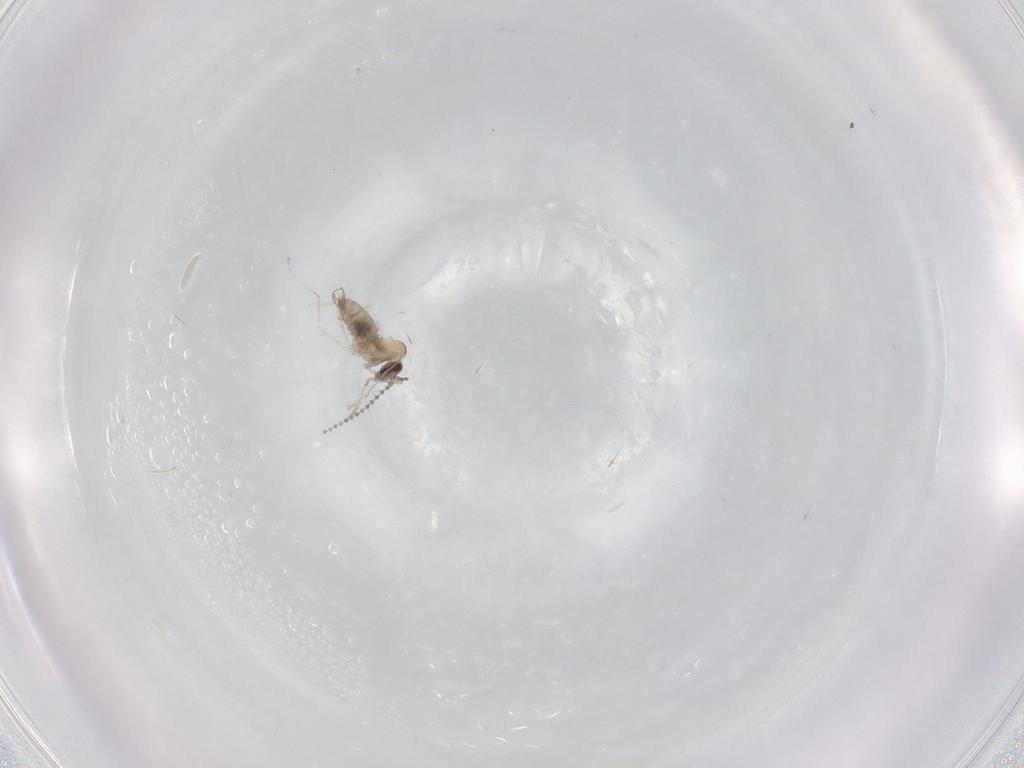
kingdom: Animalia
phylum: Arthropoda
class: Insecta
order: Diptera
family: Cecidomyiidae
